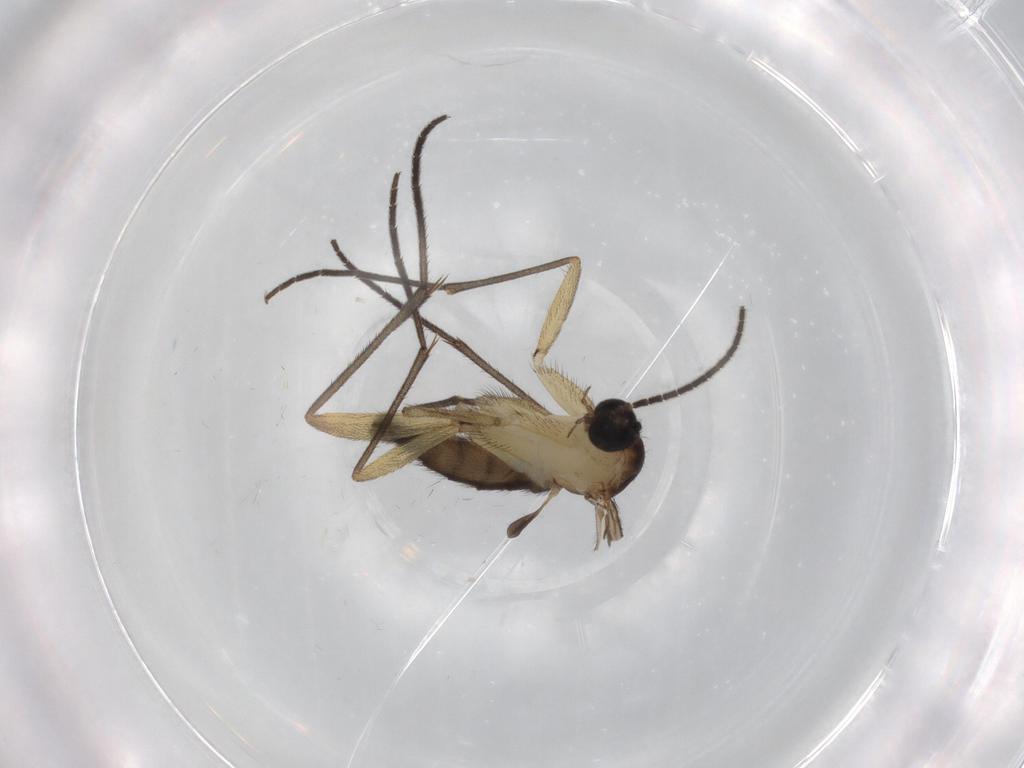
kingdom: Animalia
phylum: Arthropoda
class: Insecta
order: Diptera
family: Sciaridae
